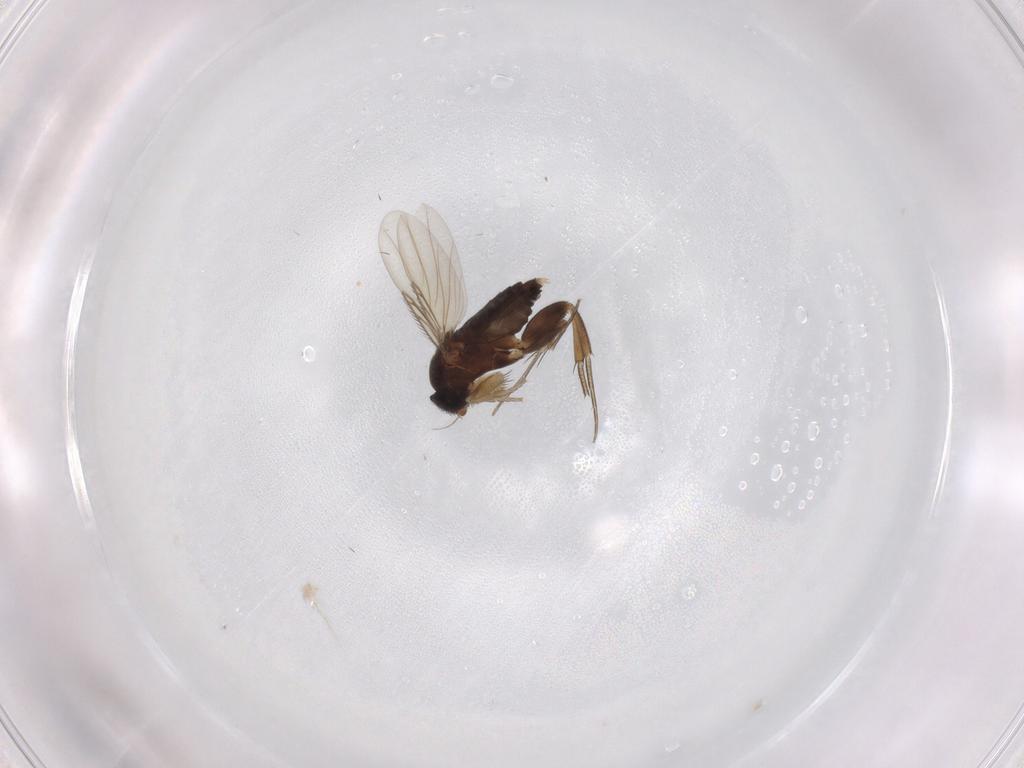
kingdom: Animalia
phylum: Arthropoda
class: Insecta
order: Diptera
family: Phoridae
